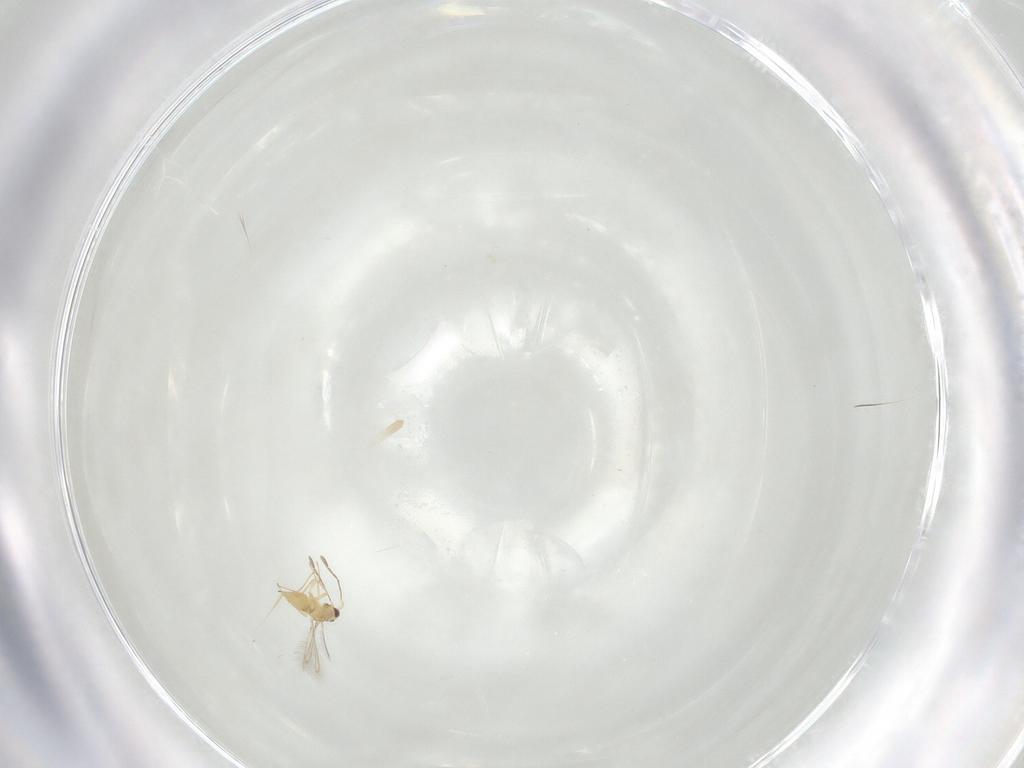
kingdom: Animalia
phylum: Arthropoda
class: Insecta
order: Hymenoptera
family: Mymaridae
